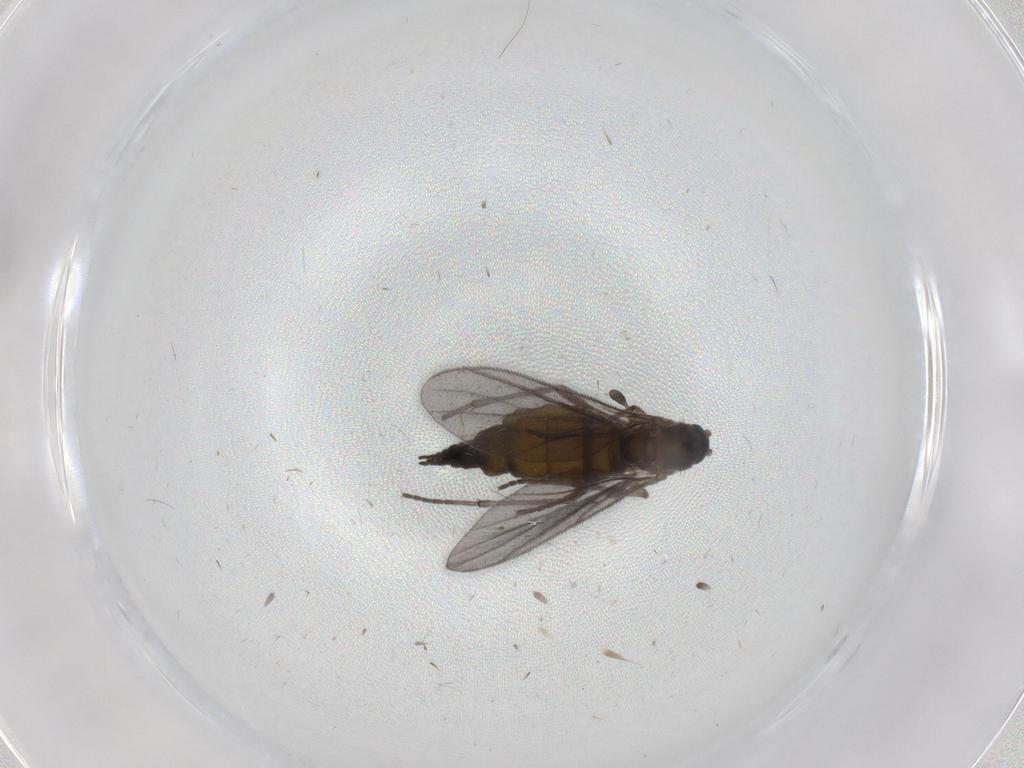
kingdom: Animalia
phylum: Arthropoda
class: Insecta
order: Diptera
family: Sciaridae
